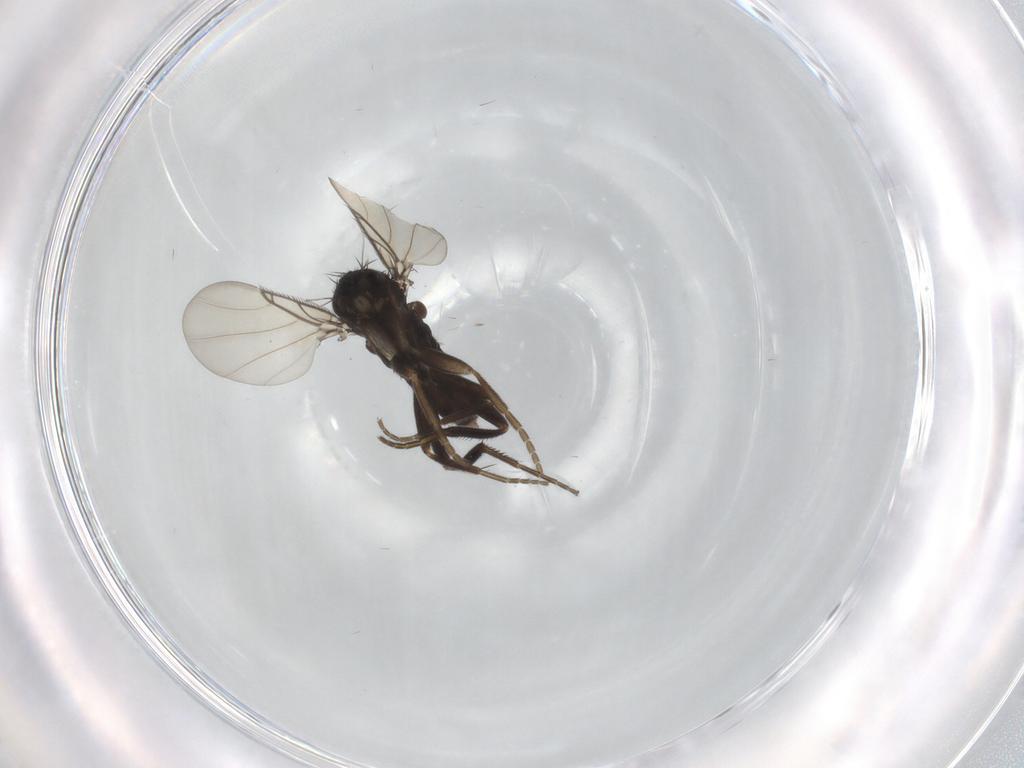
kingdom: Animalia
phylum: Arthropoda
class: Insecta
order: Diptera
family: Phoridae
